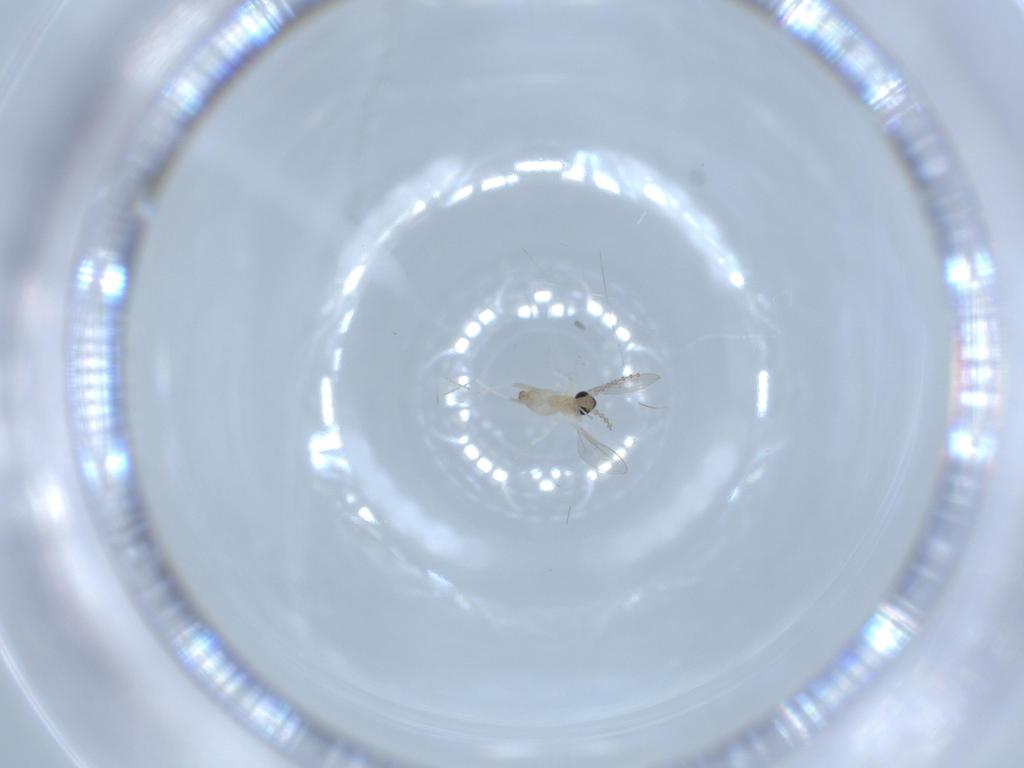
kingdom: Animalia
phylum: Arthropoda
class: Insecta
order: Diptera
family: Cecidomyiidae
